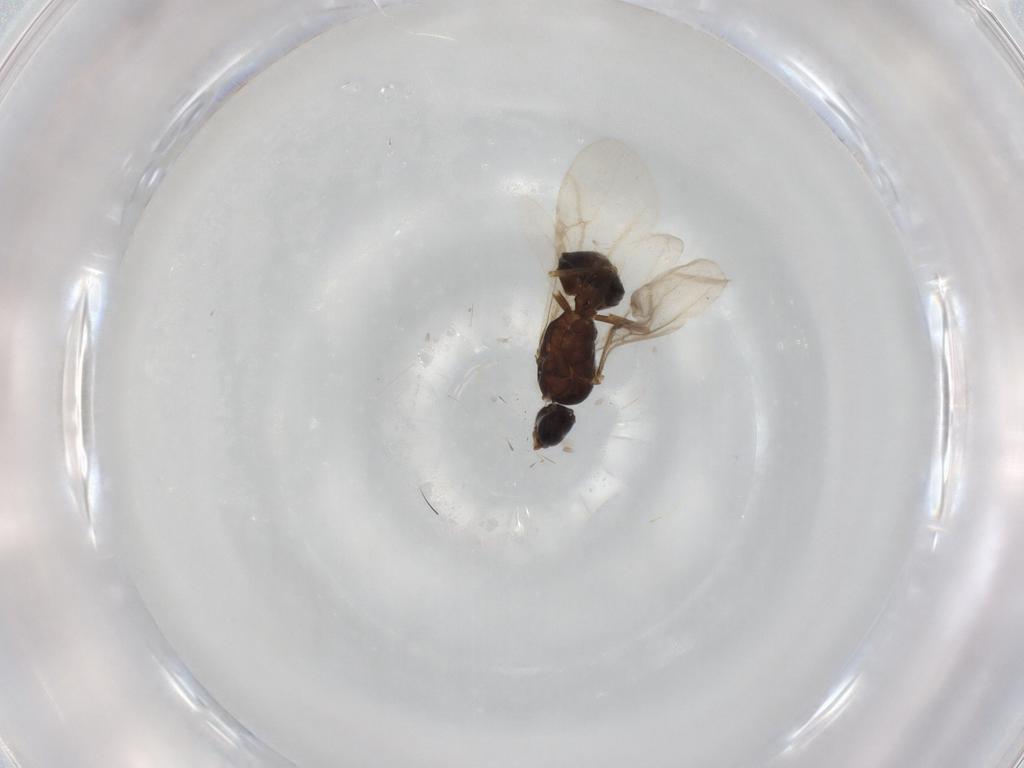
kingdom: Animalia
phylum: Arthropoda
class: Insecta
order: Hymenoptera
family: Formicidae
